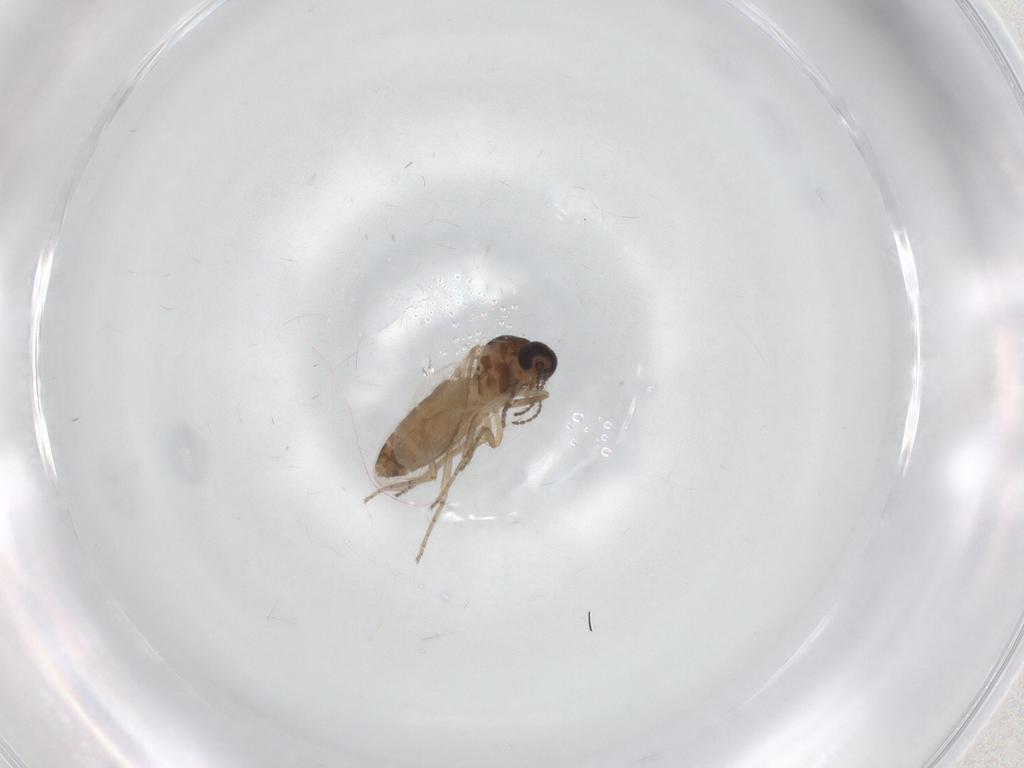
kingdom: Animalia
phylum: Arthropoda
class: Insecta
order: Diptera
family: Ceratopogonidae
